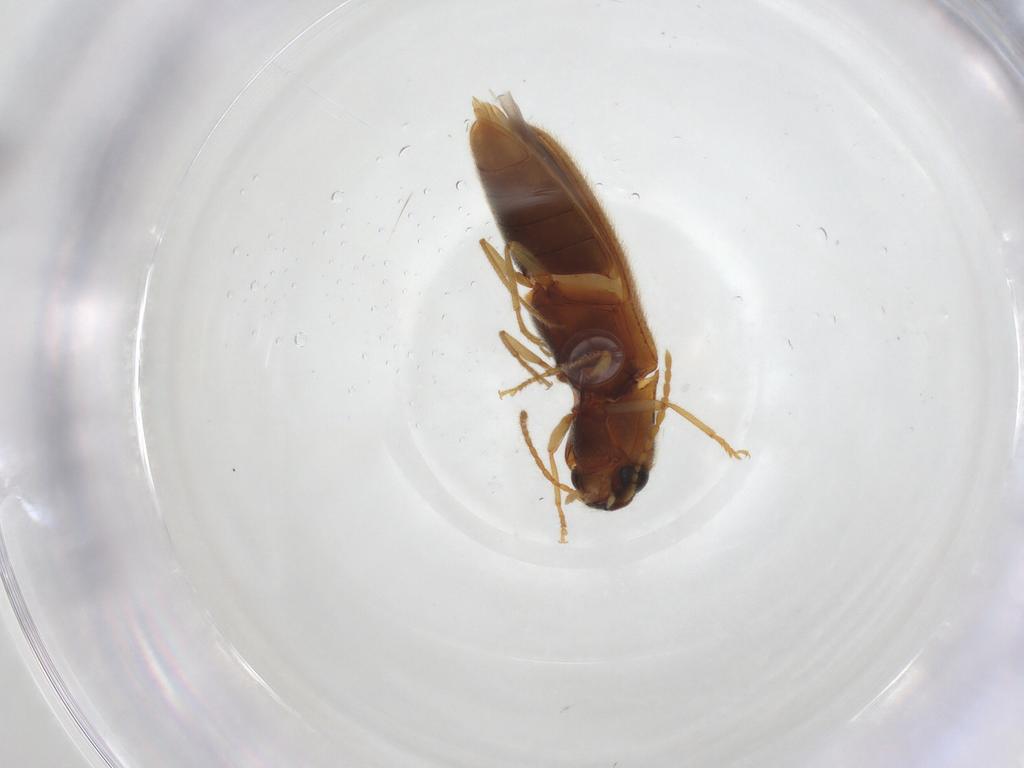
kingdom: Animalia
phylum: Arthropoda
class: Insecta
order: Coleoptera
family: Elateridae
